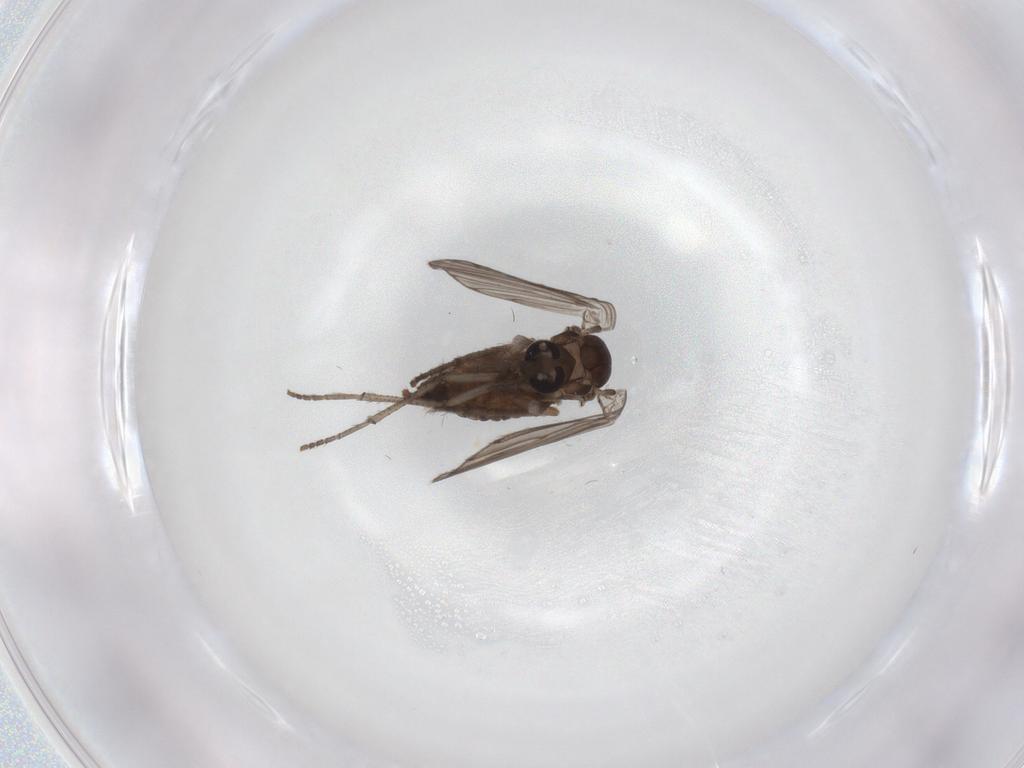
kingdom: Animalia
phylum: Arthropoda
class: Insecta
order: Diptera
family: Psychodidae
